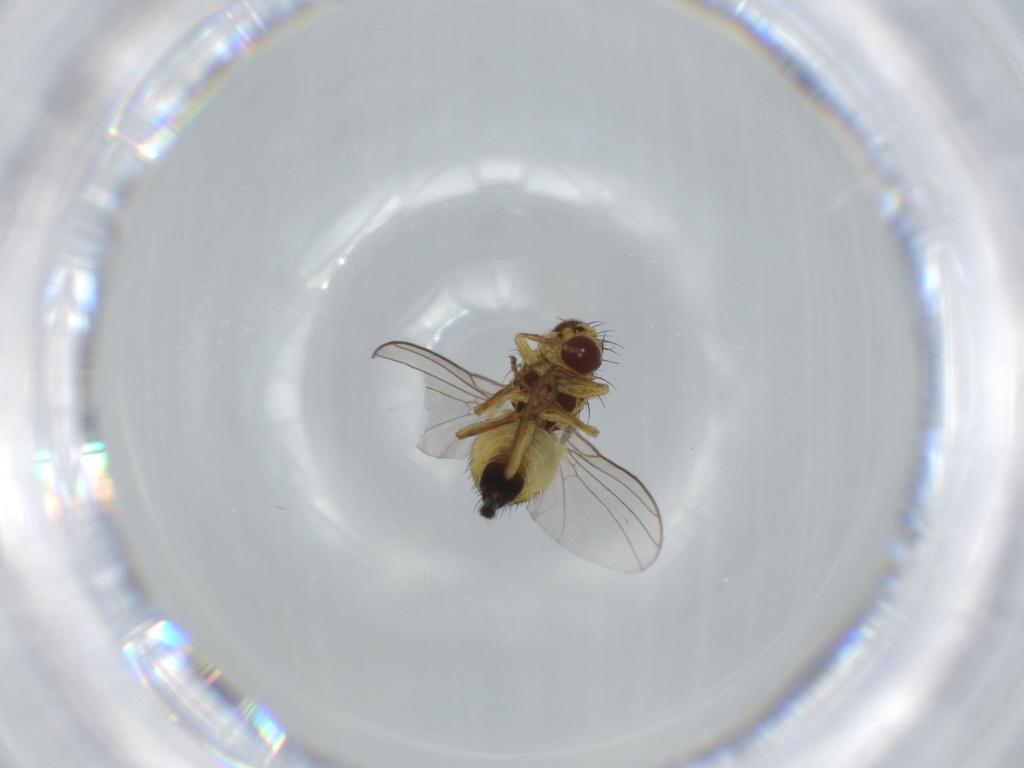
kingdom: Animalia
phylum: Arthropoda
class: Insecta
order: Diptera
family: Agromyzidae
